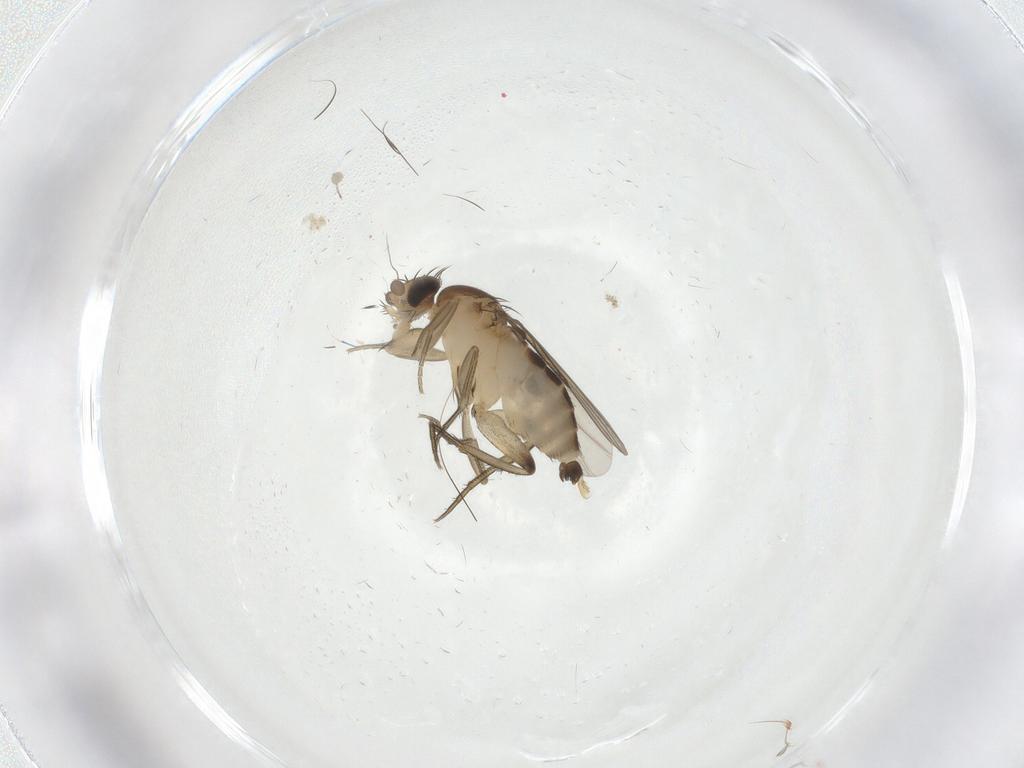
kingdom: Animalia
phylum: Arthropoda
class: Insecta
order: Diptera
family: Phoridae
